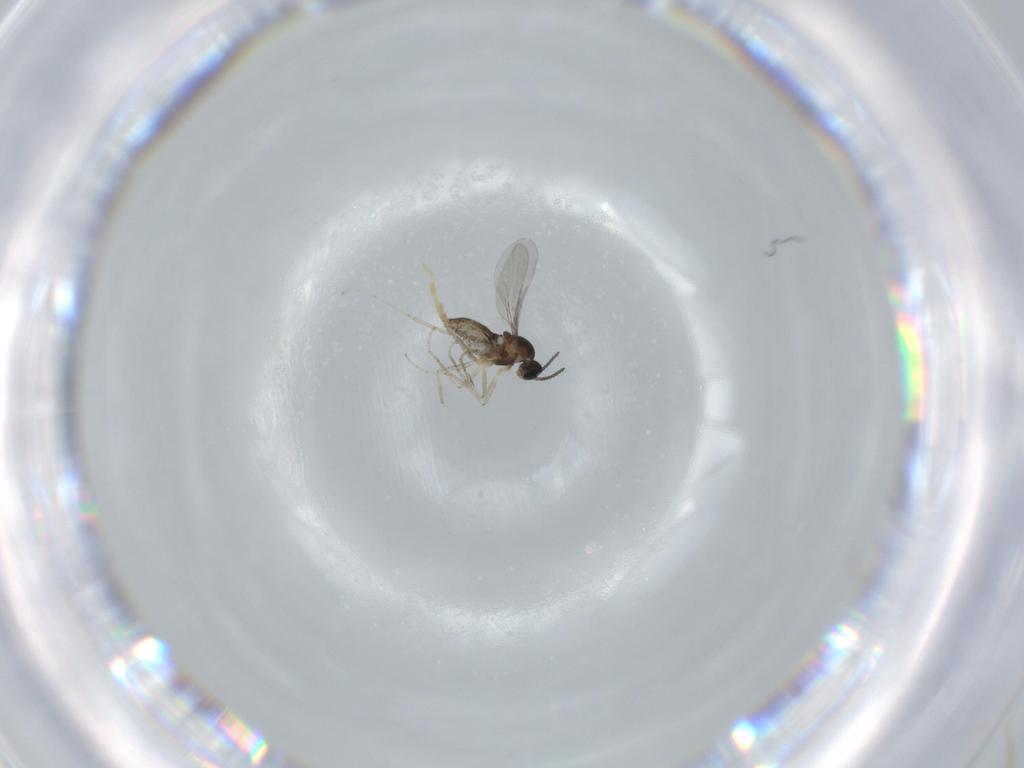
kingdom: Animalia
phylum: Arthropoda
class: Insecta
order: Diptera
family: Cecidomyiidae
